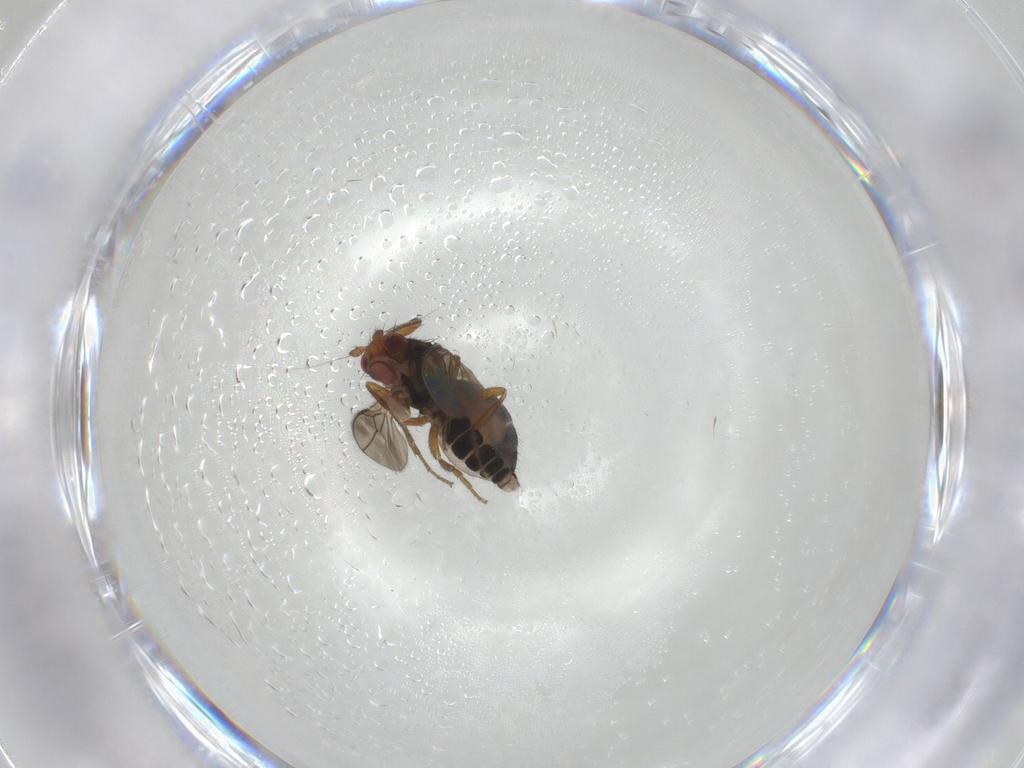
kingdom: Animalia
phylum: Arthropoda
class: Insecta
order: Diptera
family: Sphaeroceridae
